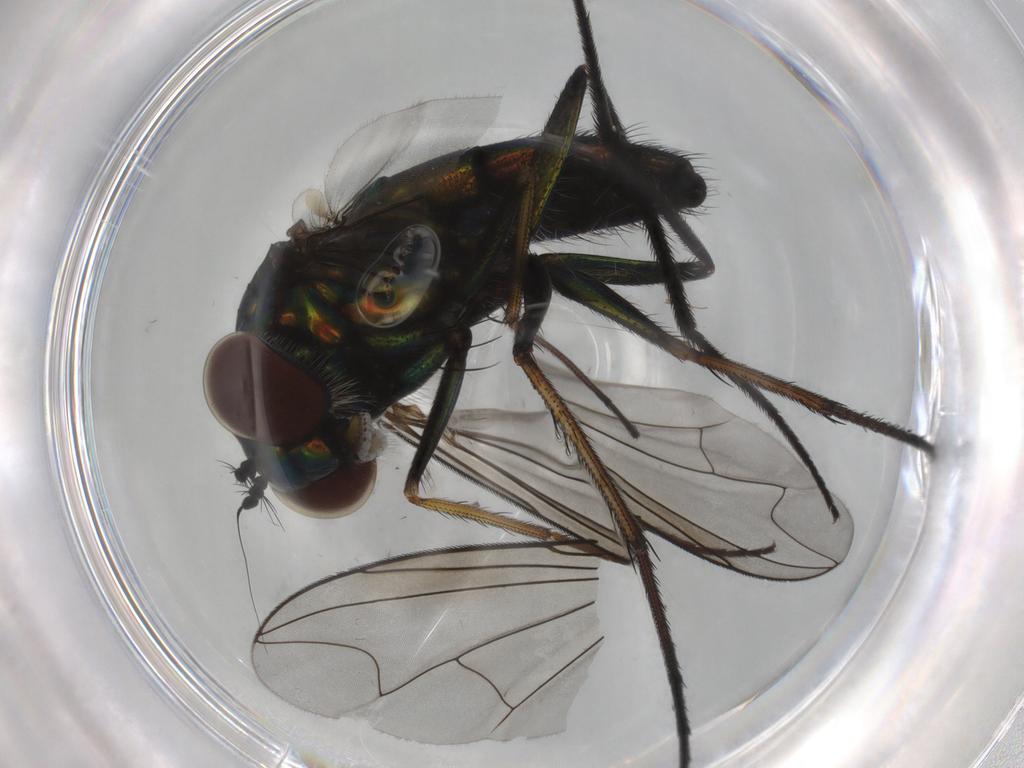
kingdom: Animalia
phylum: Arthropoda
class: Insecta
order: Diptera
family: Dolichopodidae
